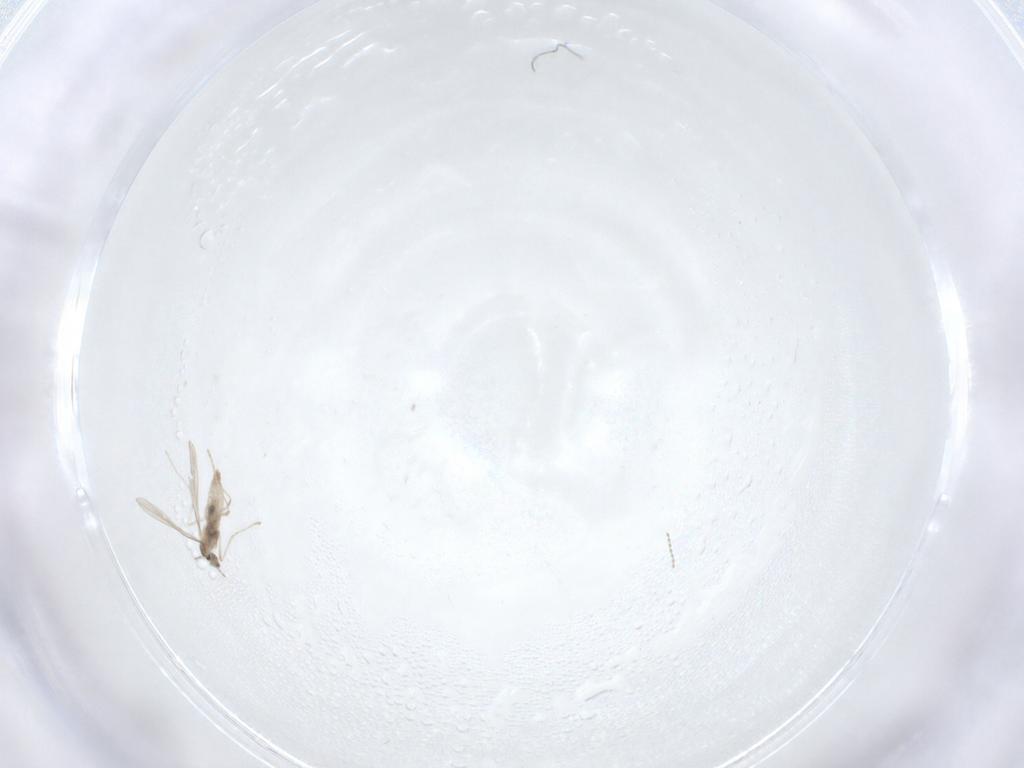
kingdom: Animalia
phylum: Arthropoda
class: Insecta
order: Diptera
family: Cecidomyiidae
